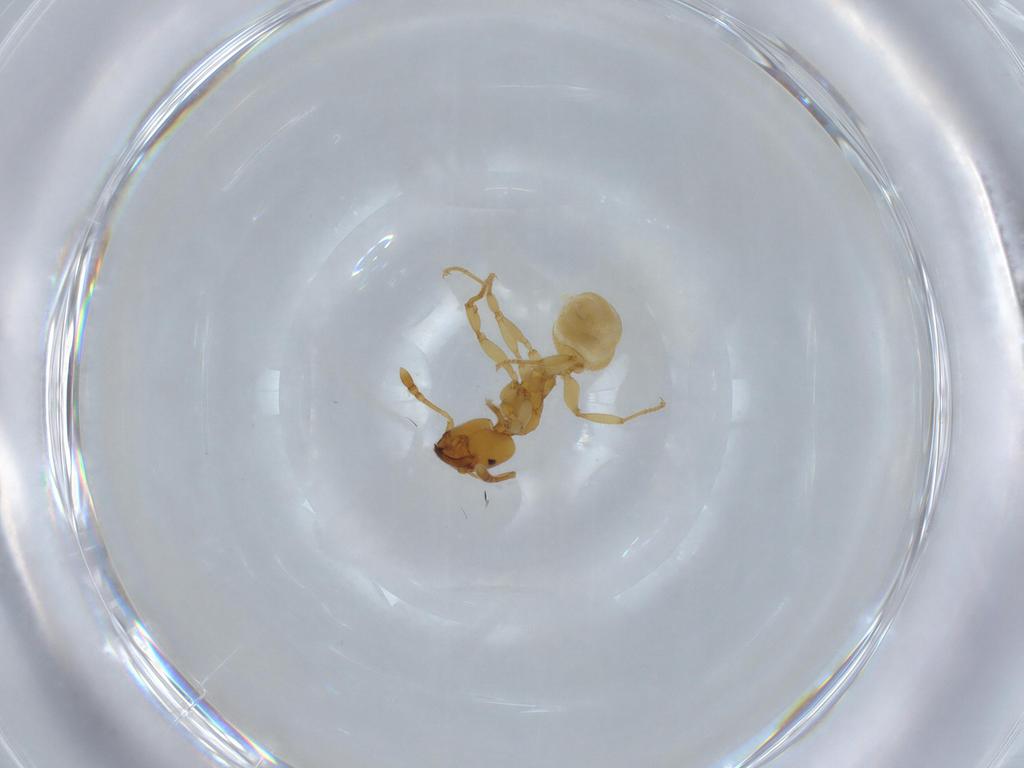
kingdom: Animalia
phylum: Arthropoda
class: Insecta
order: Hymenoptera
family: Formicidae
